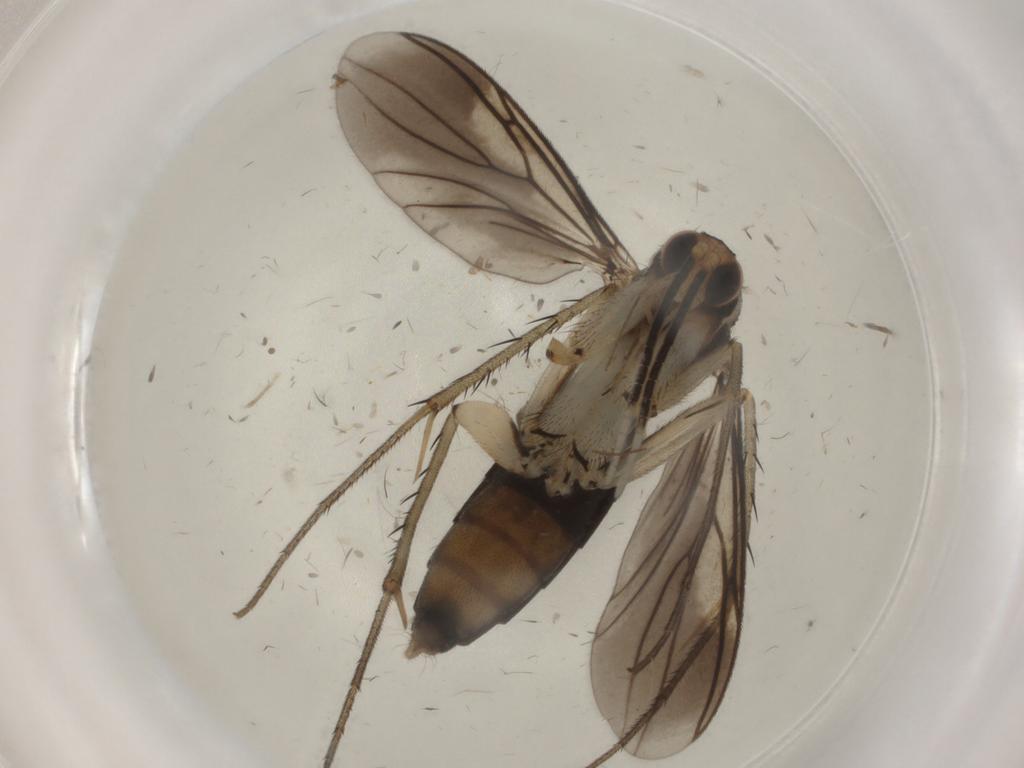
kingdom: Animalia
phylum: Arthropoda
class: Insecta
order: Diptera
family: Mycetophilidae
